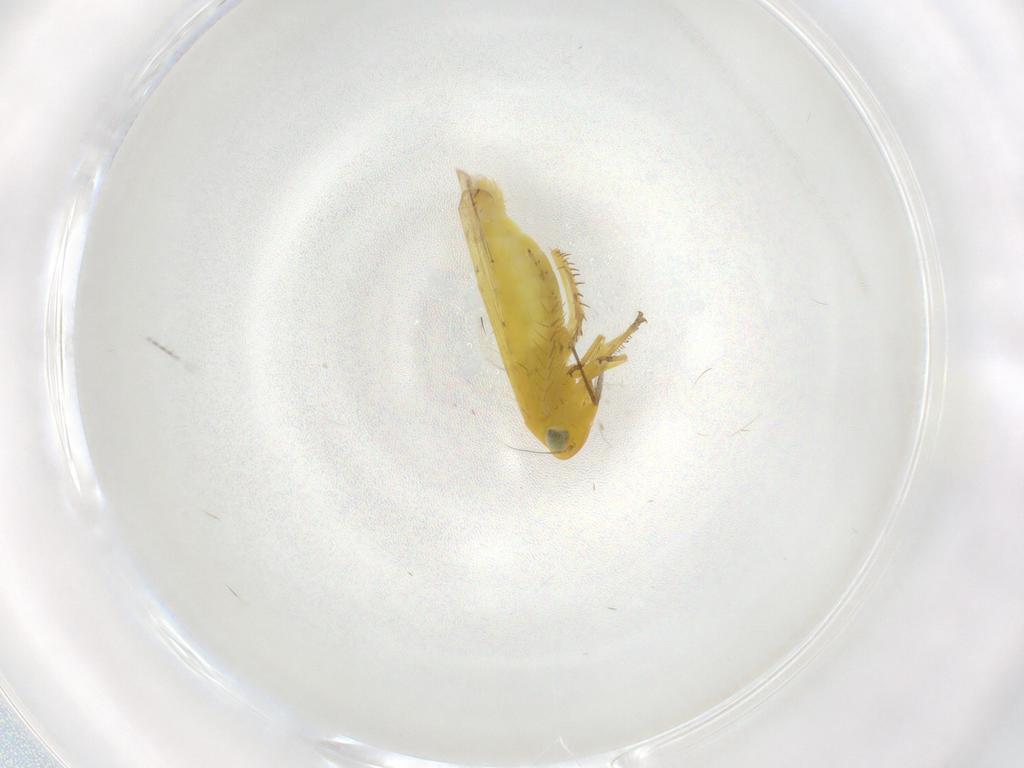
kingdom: Animalia
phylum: Arthropoda
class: Insecta
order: Hemiptera
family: Cicadellidae
